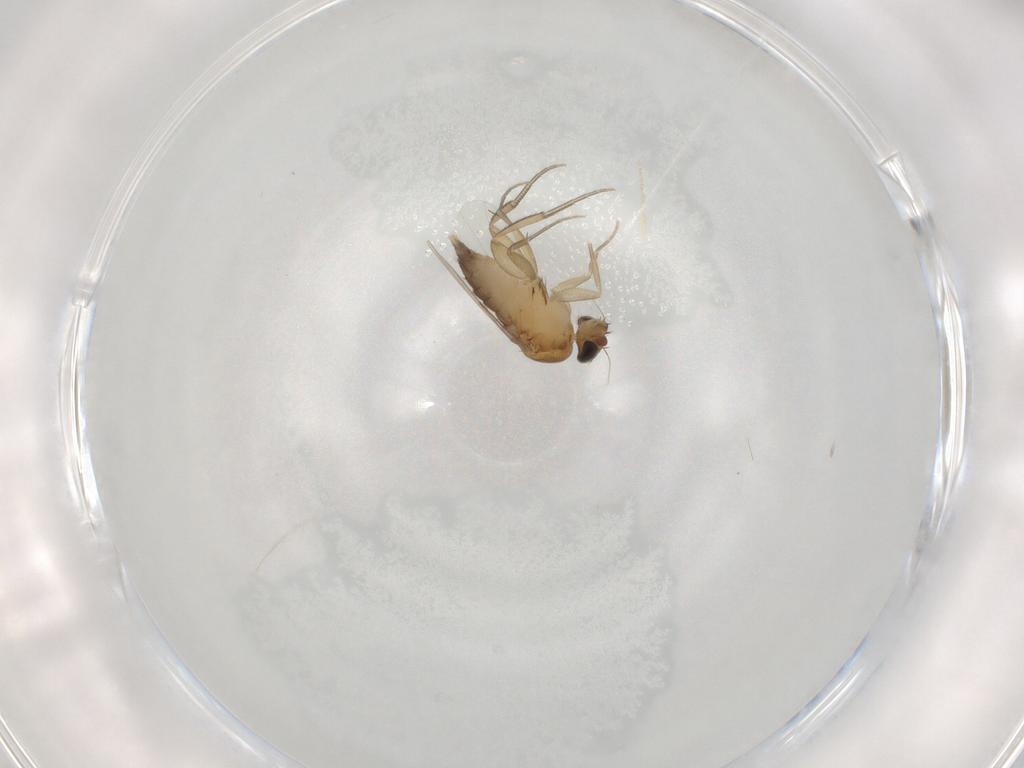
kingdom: Animalia
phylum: Arthropoda
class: Insecta
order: Diptera
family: Phoridae
